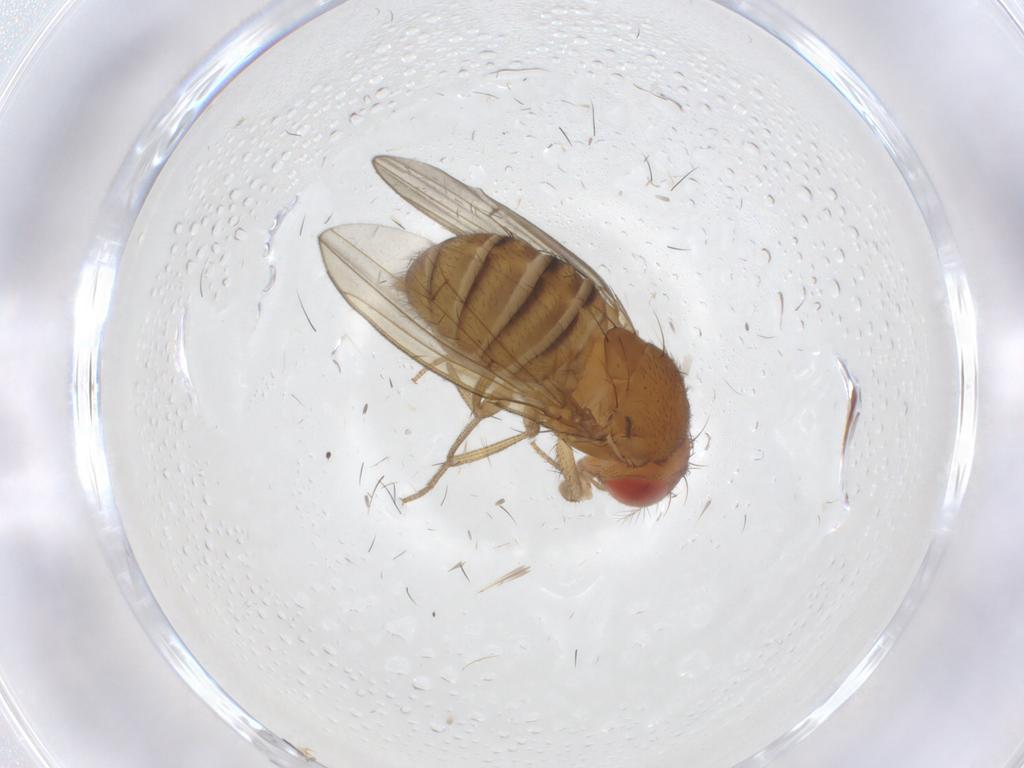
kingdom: Animalia
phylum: Arthropoda
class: Insecta
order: Diptera
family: Drosophilidae
